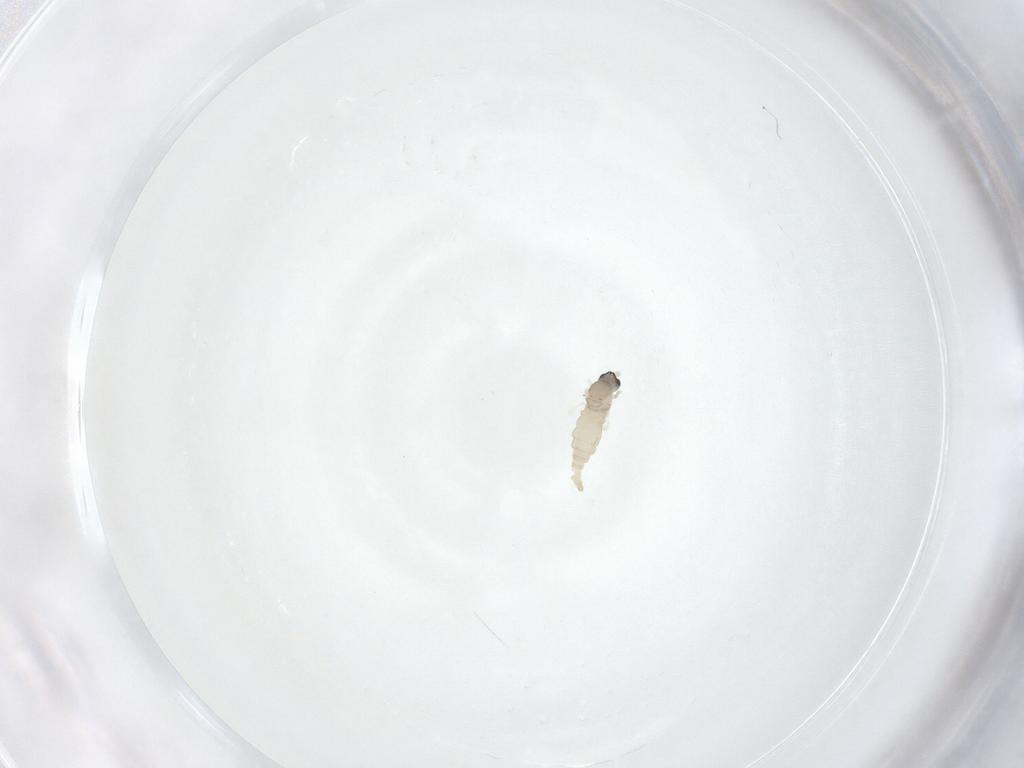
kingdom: Animalia
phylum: Arthropoda
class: Insecta
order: Diptera
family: Cecidomyiidae
